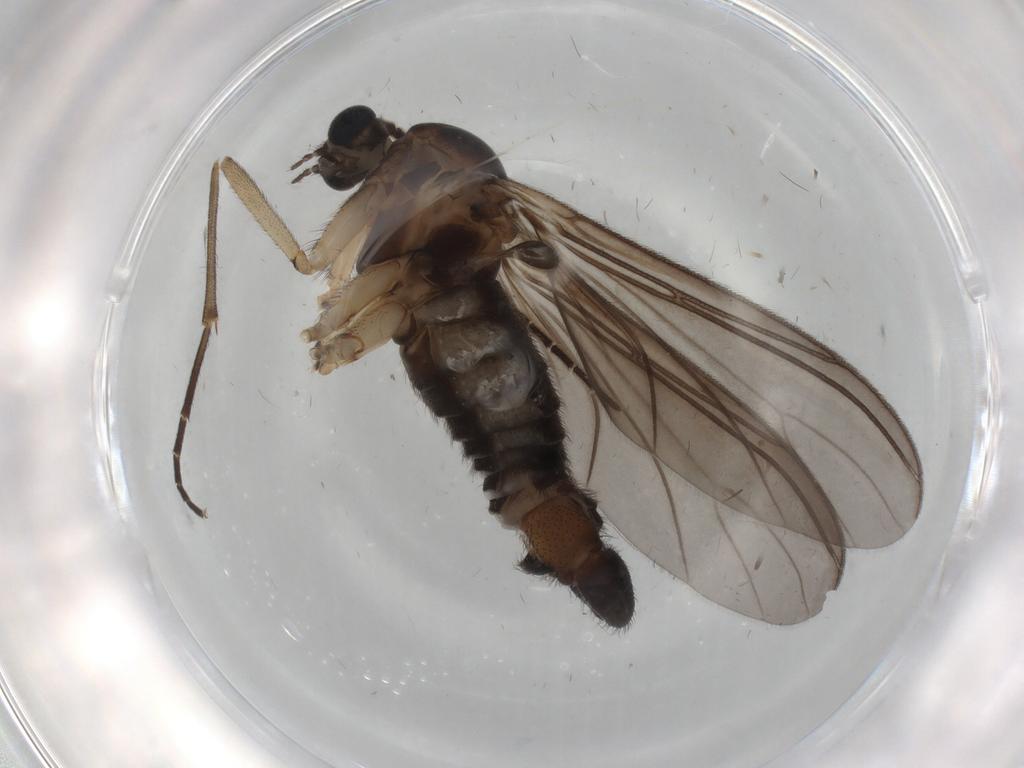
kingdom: Animalia
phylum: Arthropoda
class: Insecta
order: Diptera
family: Sciaridae
